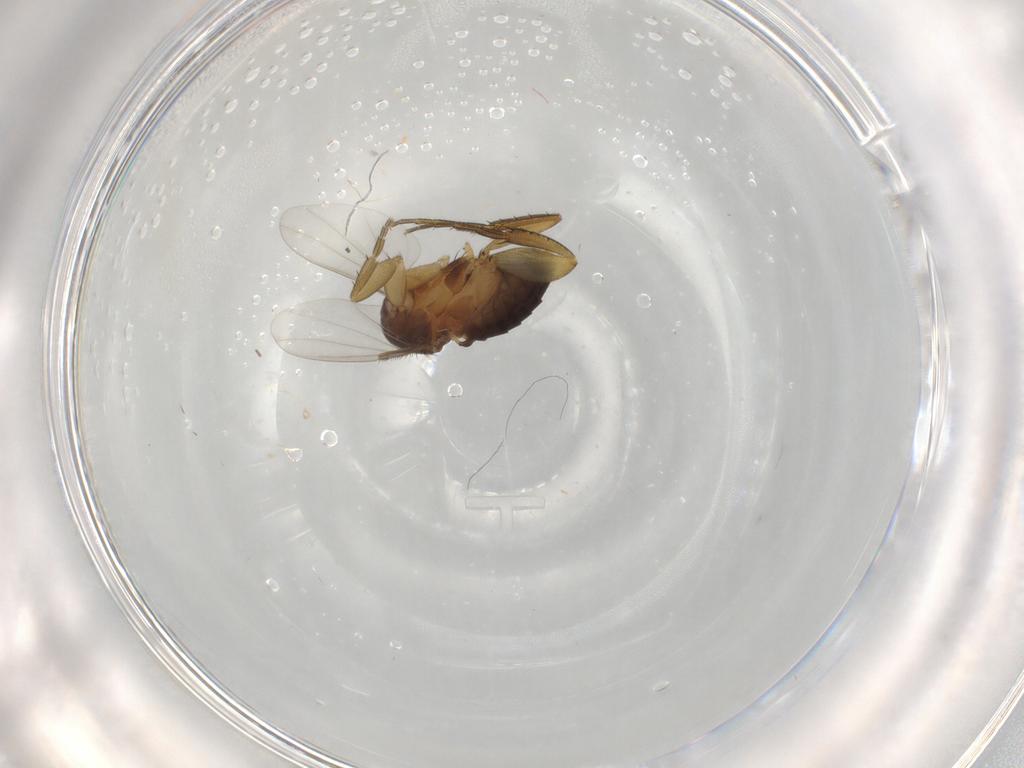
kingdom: Animalia
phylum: Arthropoda
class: Insecta
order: Diptera
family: Phoridae
